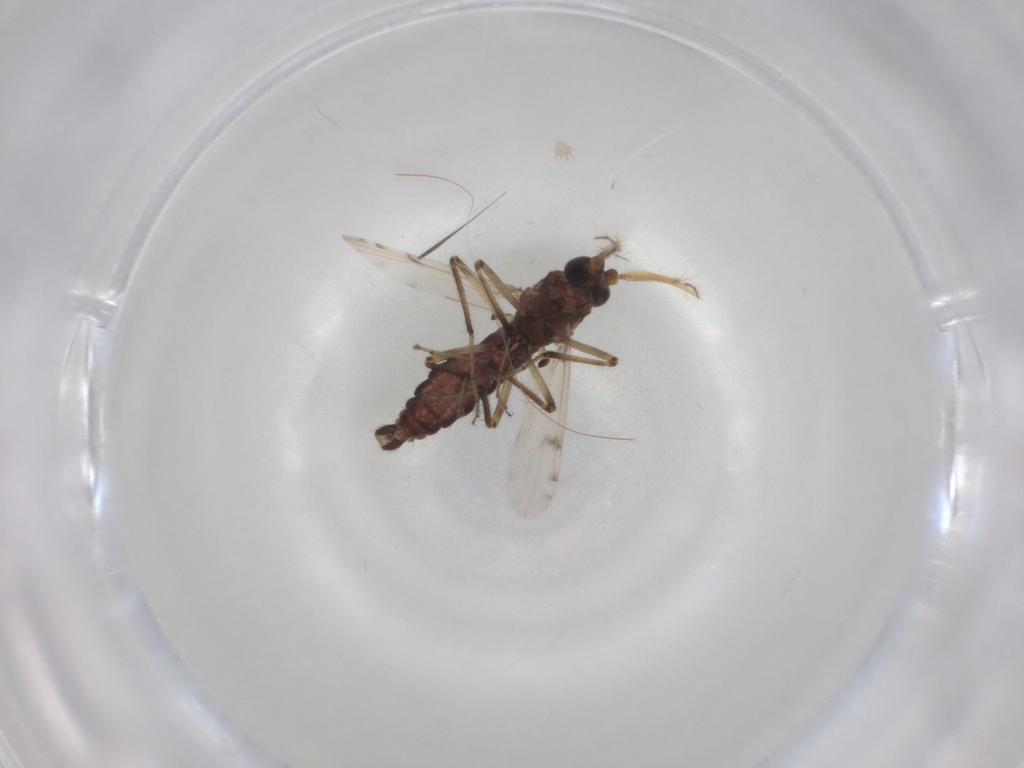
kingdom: Animalia
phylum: Arthropoda
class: Insecta
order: Diptera
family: Ceratopogonidae
